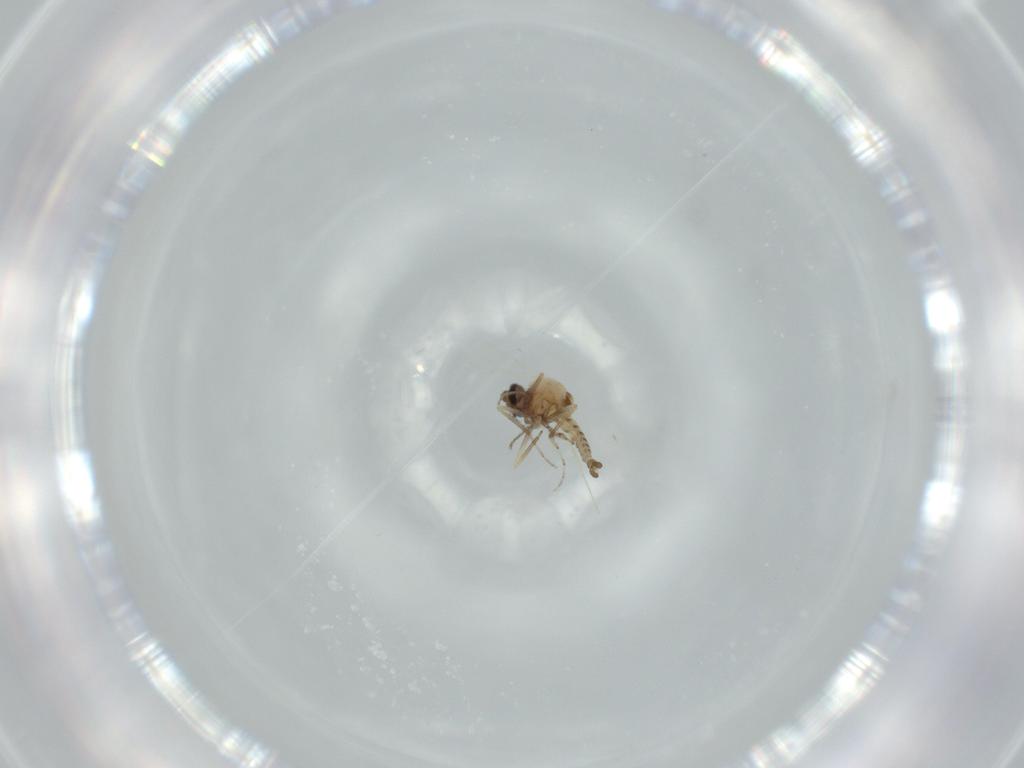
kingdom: Animalia
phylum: Arthropoda
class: Insecta
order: Diptera
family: Ceratopogonidae
